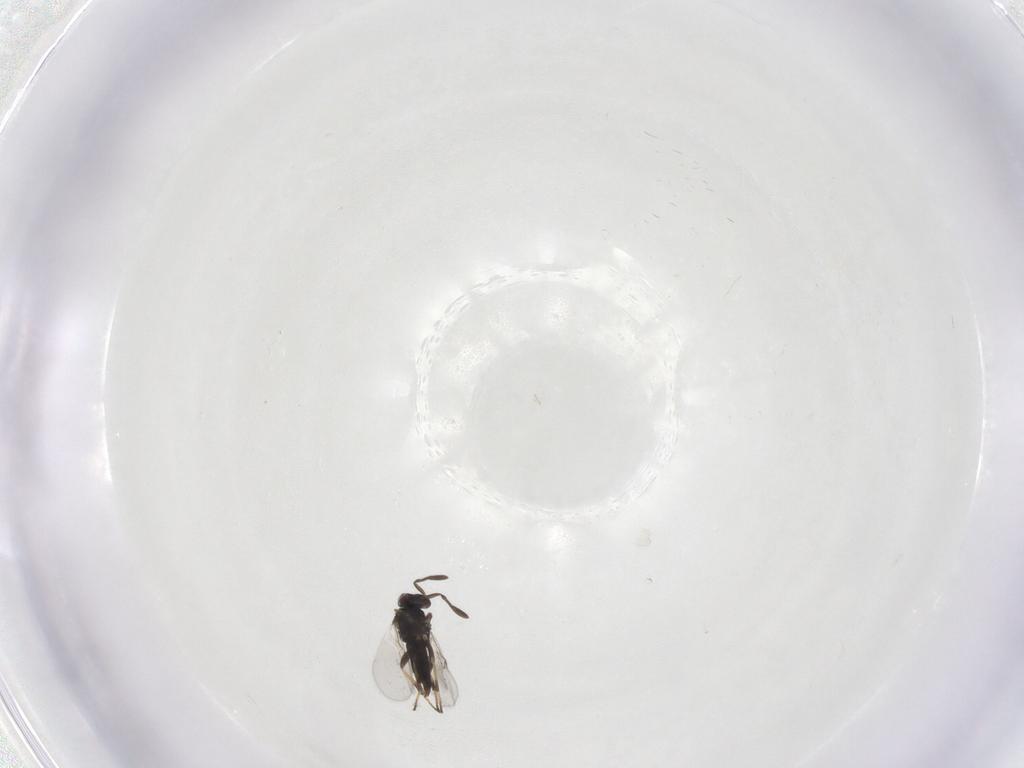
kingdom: Animalia
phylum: Arthropoda
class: Insecta
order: Hymenoptera
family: Encyrtidae
